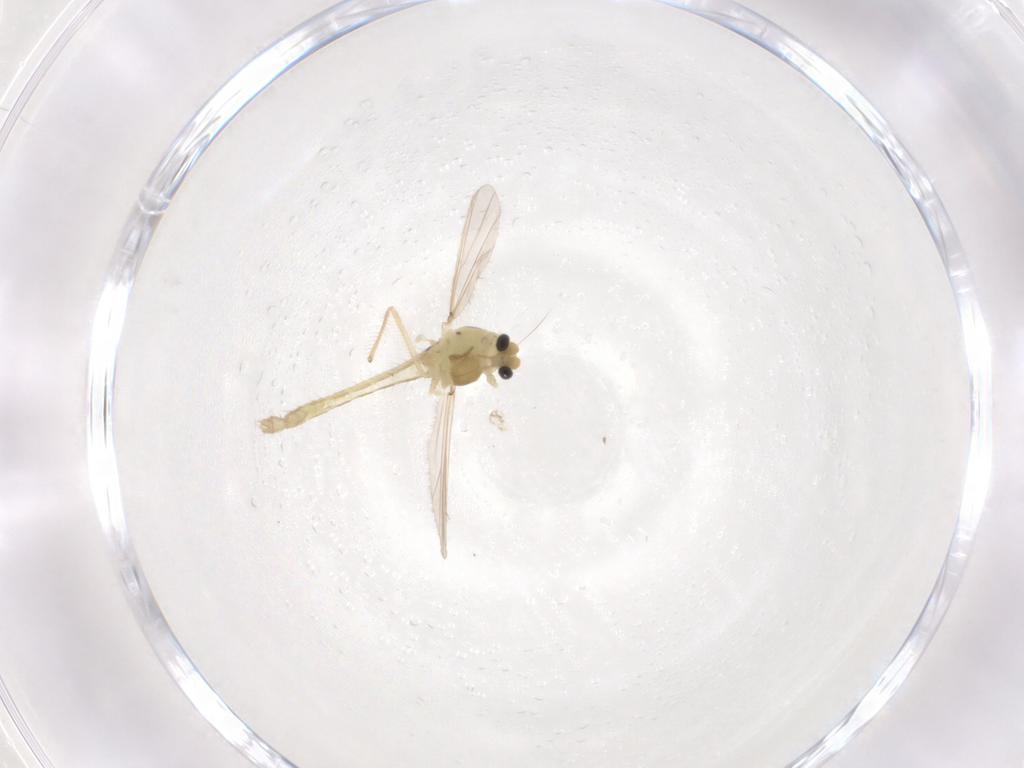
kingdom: Animalia
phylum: Arthropoda
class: Insecta
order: Diptera
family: Chironomidae
